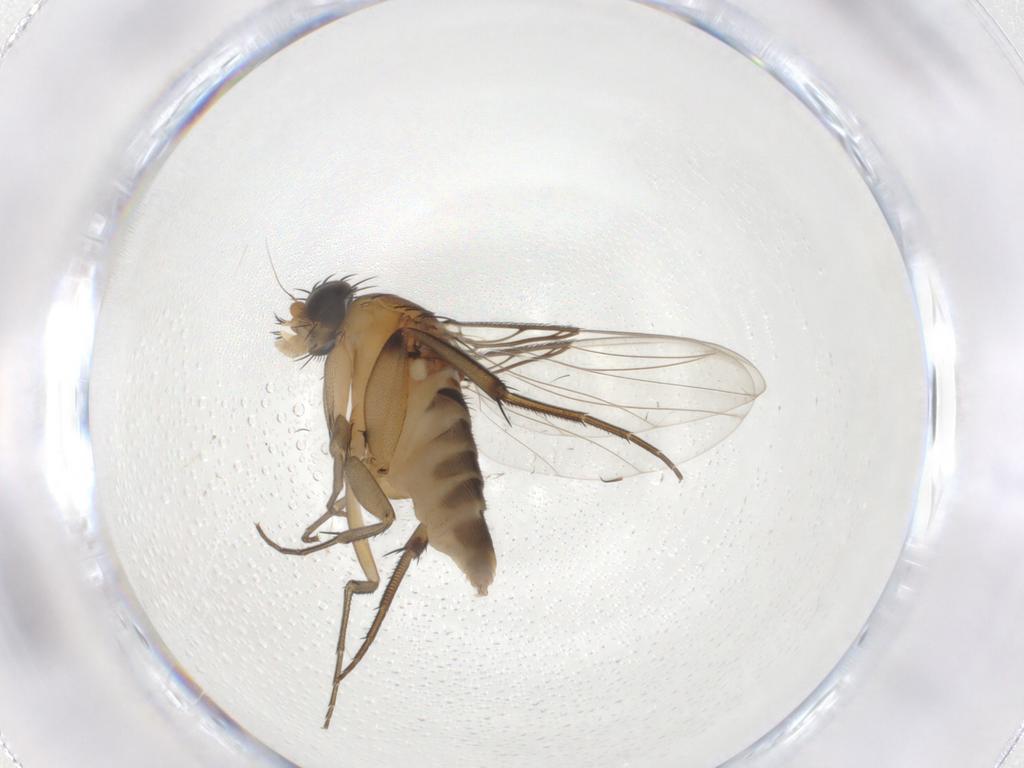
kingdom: Animalia
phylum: Arthropoda
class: Insecta
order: Diptera
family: Phoridae
